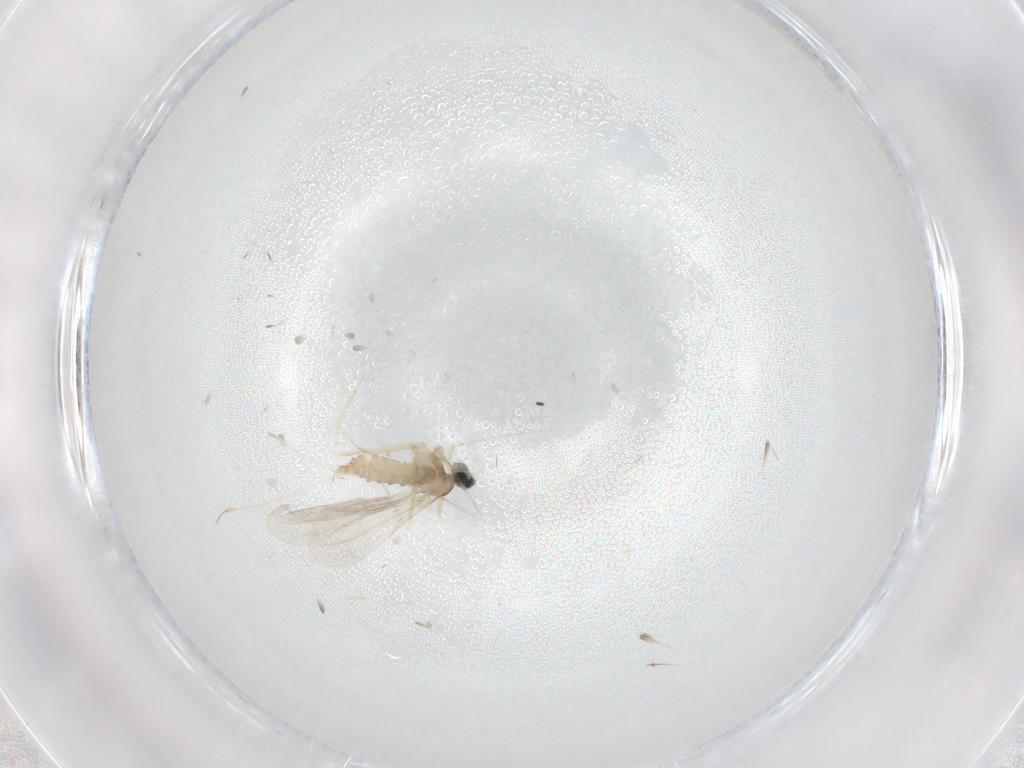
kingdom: Animalia
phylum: Arthropoda
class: Insecta
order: Diptera
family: Cecidomyiidae
